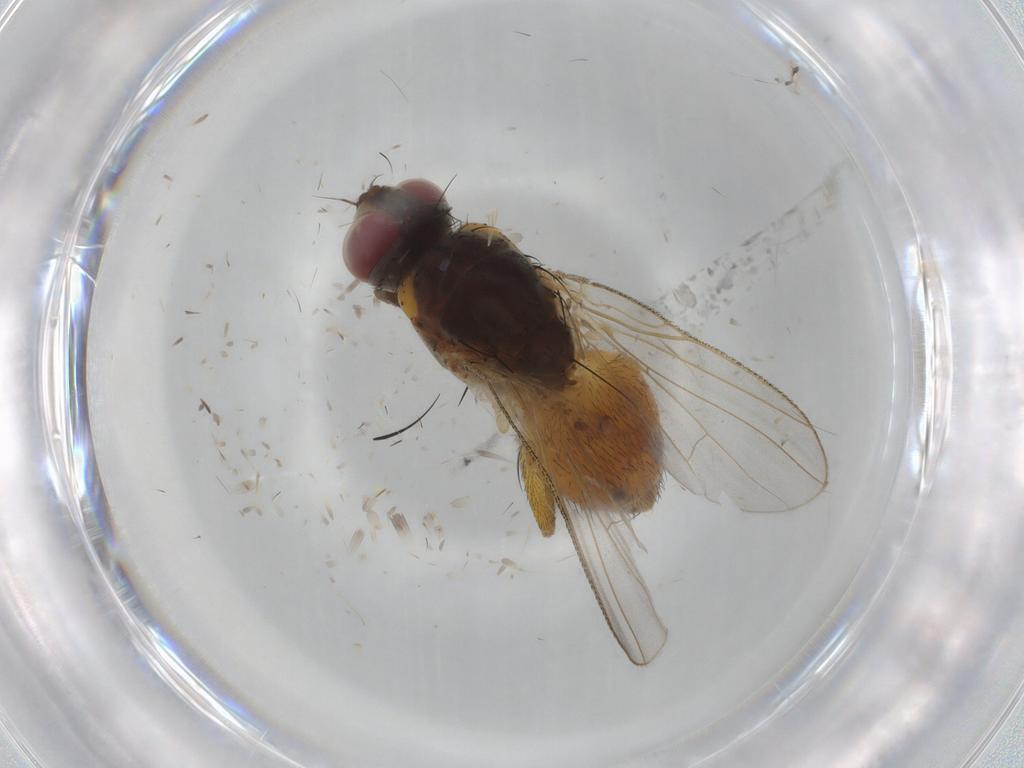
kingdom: Animalia
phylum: Arthropoda
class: Insecta
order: Diptera
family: Muscidae
